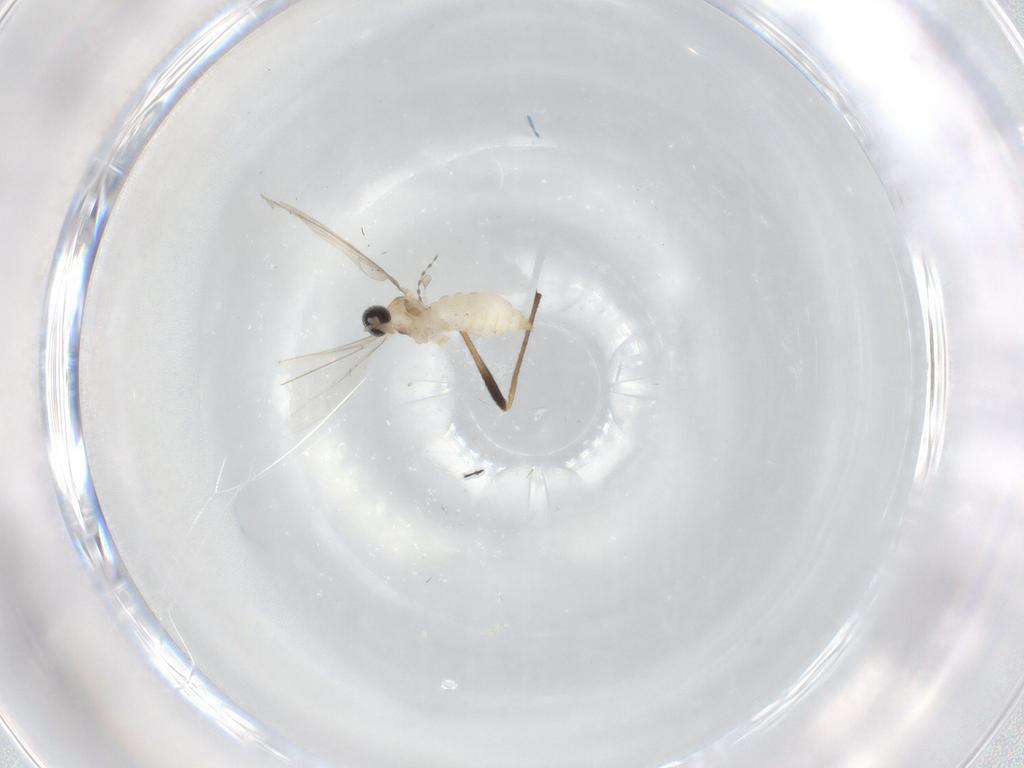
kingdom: Animalia
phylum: Arthropoda
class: Insecta
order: Diptera
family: Cecidomyiidae
